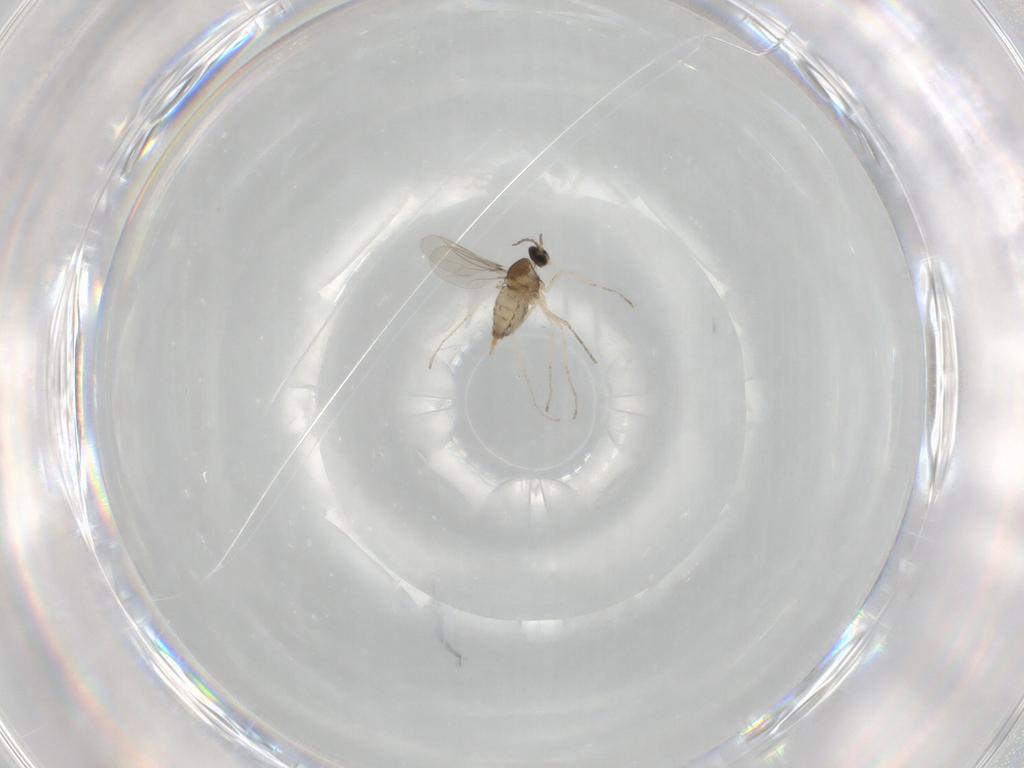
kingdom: Animalia
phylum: Arthropoda
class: Insecta
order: Diptera
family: Cecidomyiidae
